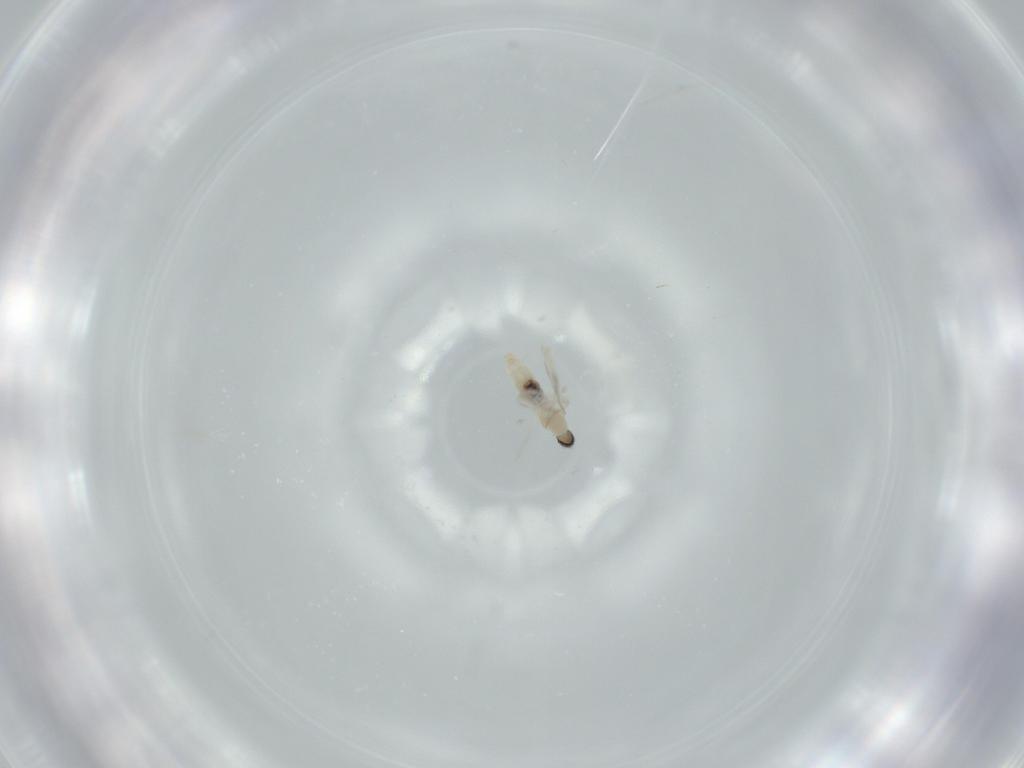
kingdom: Animalia
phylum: Arthropoda
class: Insecta
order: Diptera
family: Cecidomyiidae
